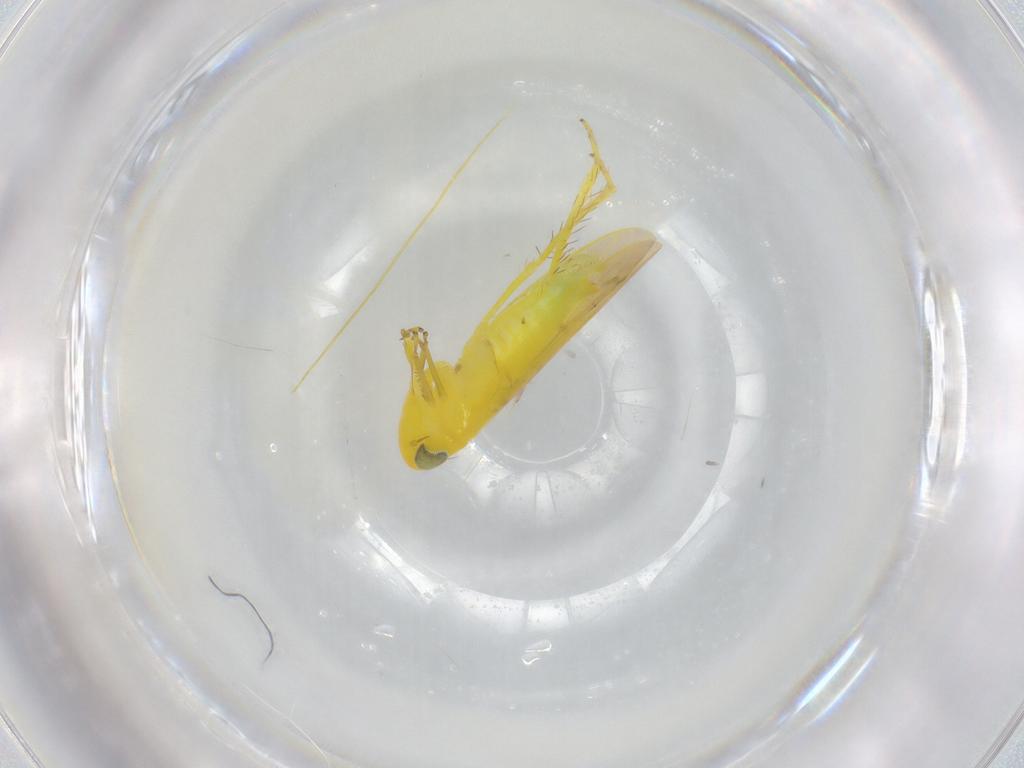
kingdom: Animalia
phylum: Arthropoda
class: Insecta
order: Hemiptera
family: Cicadellidae
